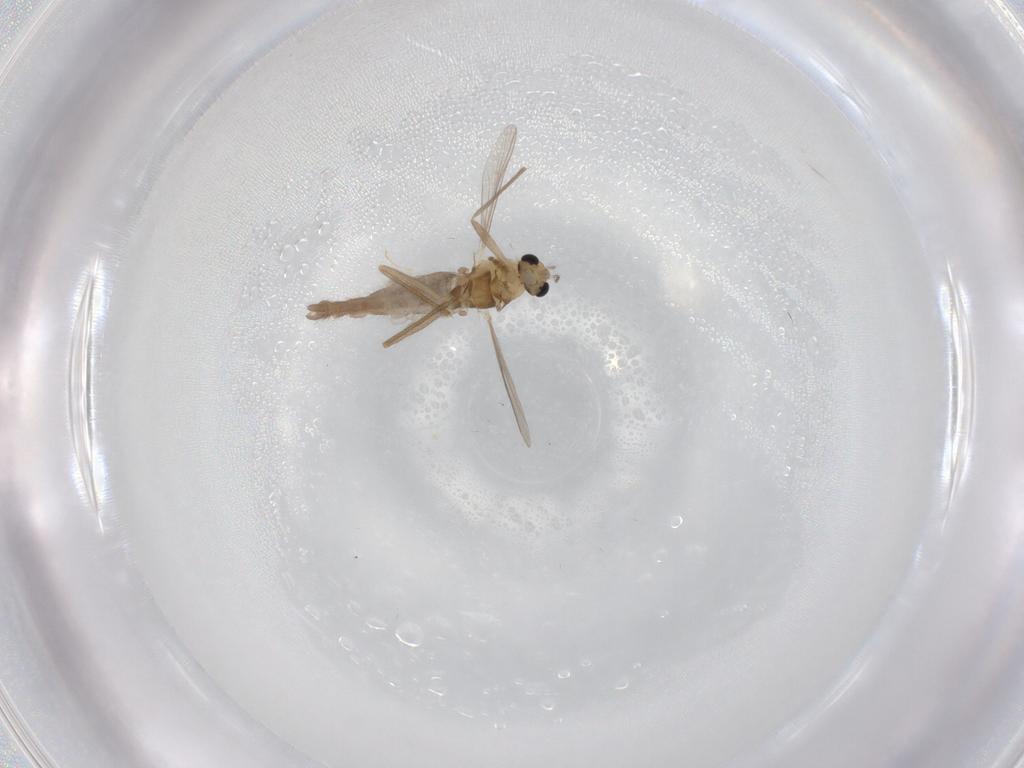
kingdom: Animalia
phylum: Arthropoda
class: Insecta
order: Diptera
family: Chironomidae
